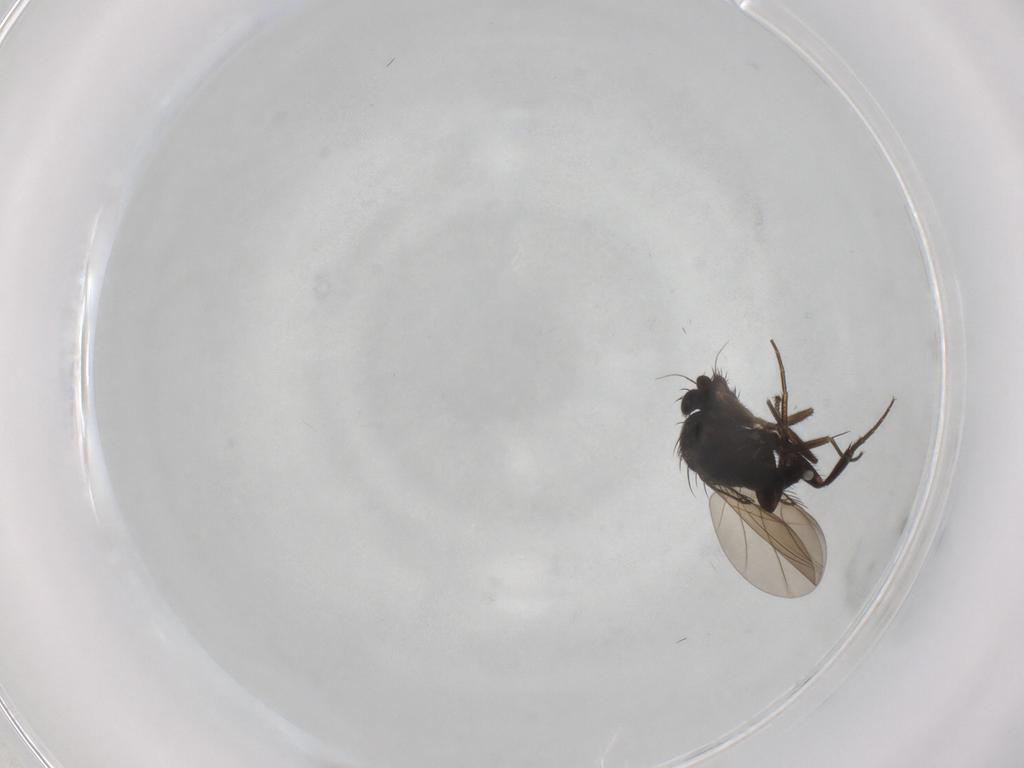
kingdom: Animalia
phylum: Arthropoda
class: Insecta
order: Diptera
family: Phoridae
